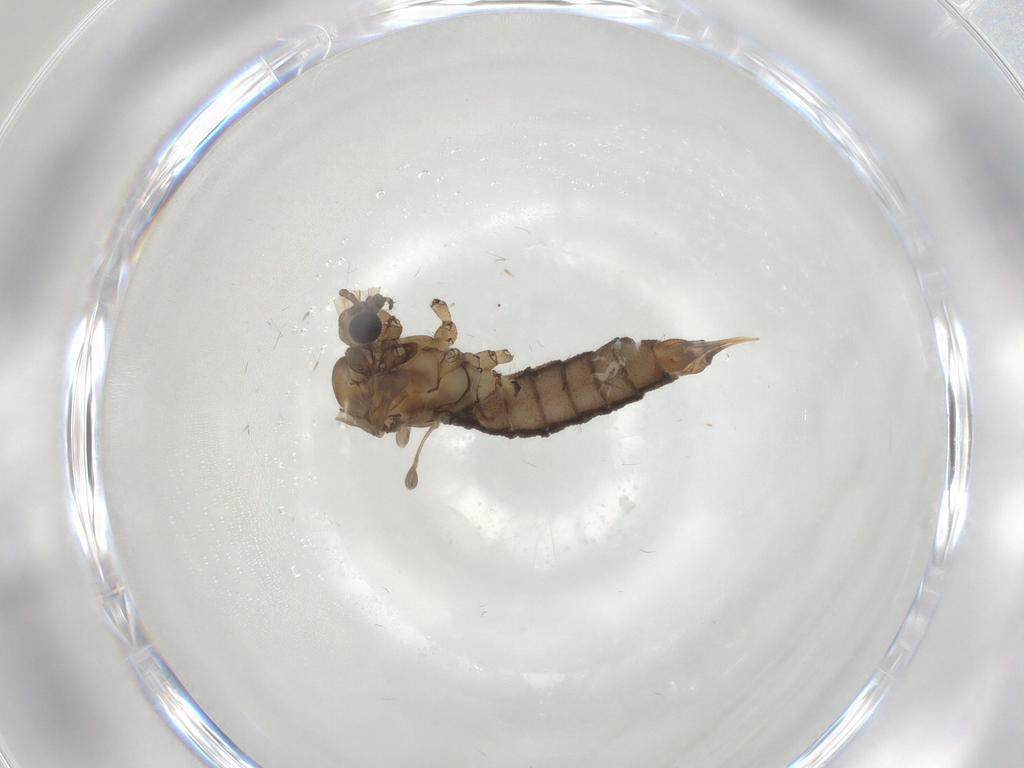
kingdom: Animalia
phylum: Arthropoda
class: Insecta
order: Diptera
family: Limoniidae
